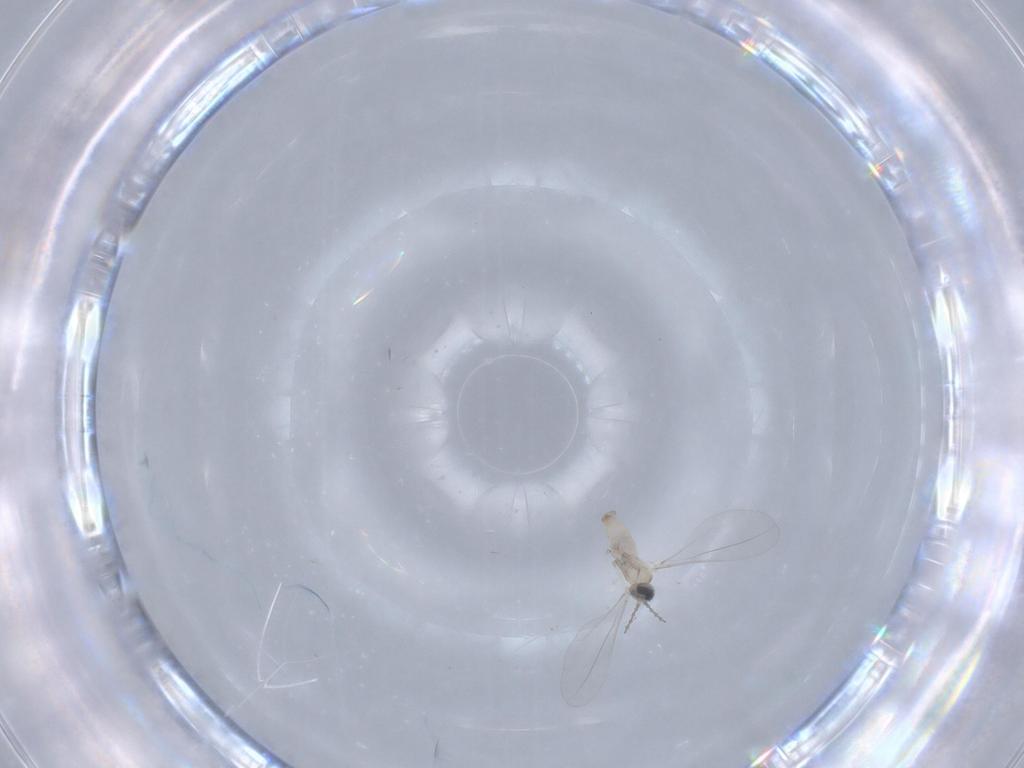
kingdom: Animalia
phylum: Arthropoda
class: Insecta
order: Diptera
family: Cecidomyiidae
